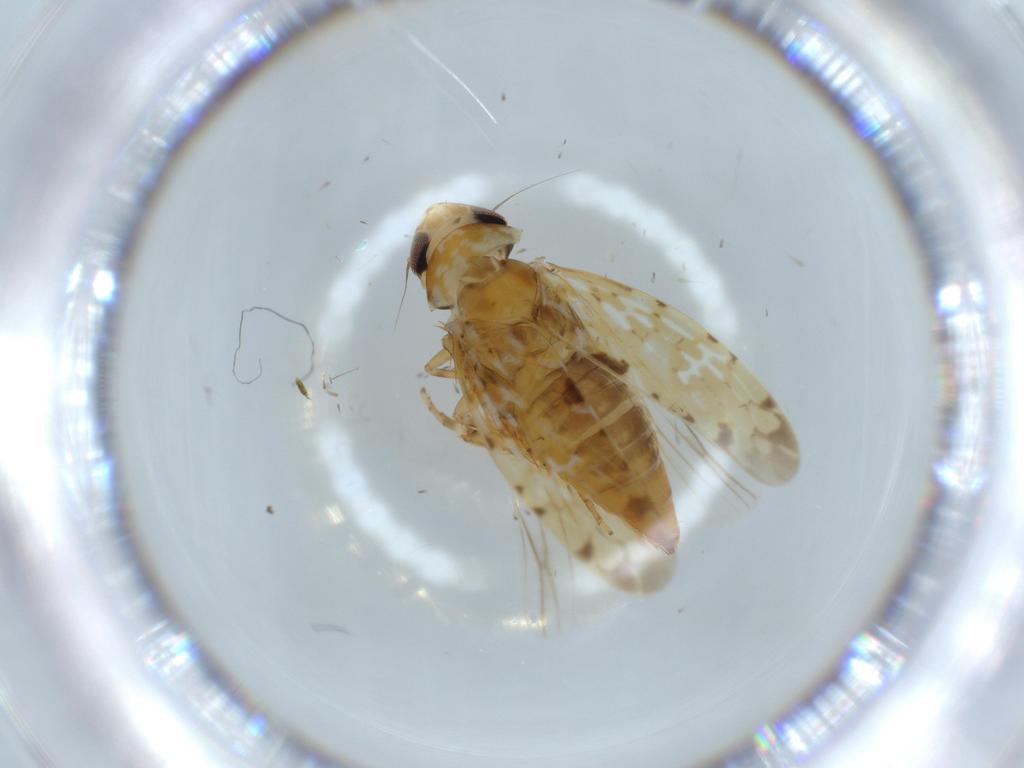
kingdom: Animalia
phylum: Arthropoda
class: Insecta
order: Hemiptera
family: Cicadellidae
